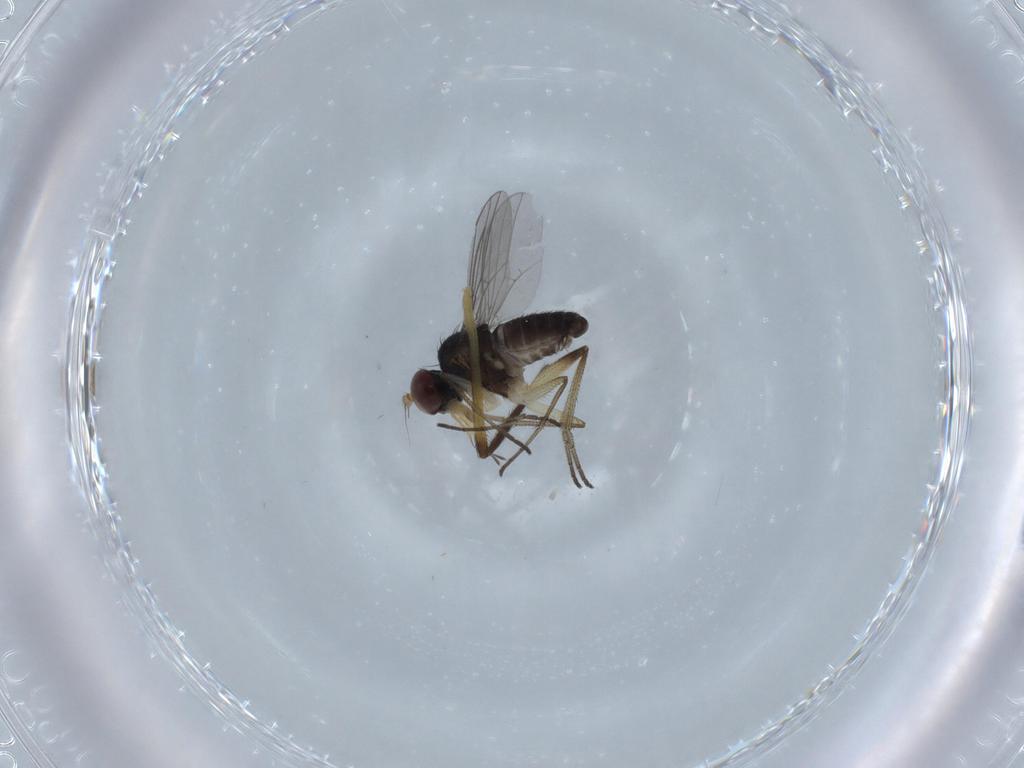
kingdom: Animalia
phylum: Arthropoda
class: Insecta
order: Diptera
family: Cecidomyiidae
